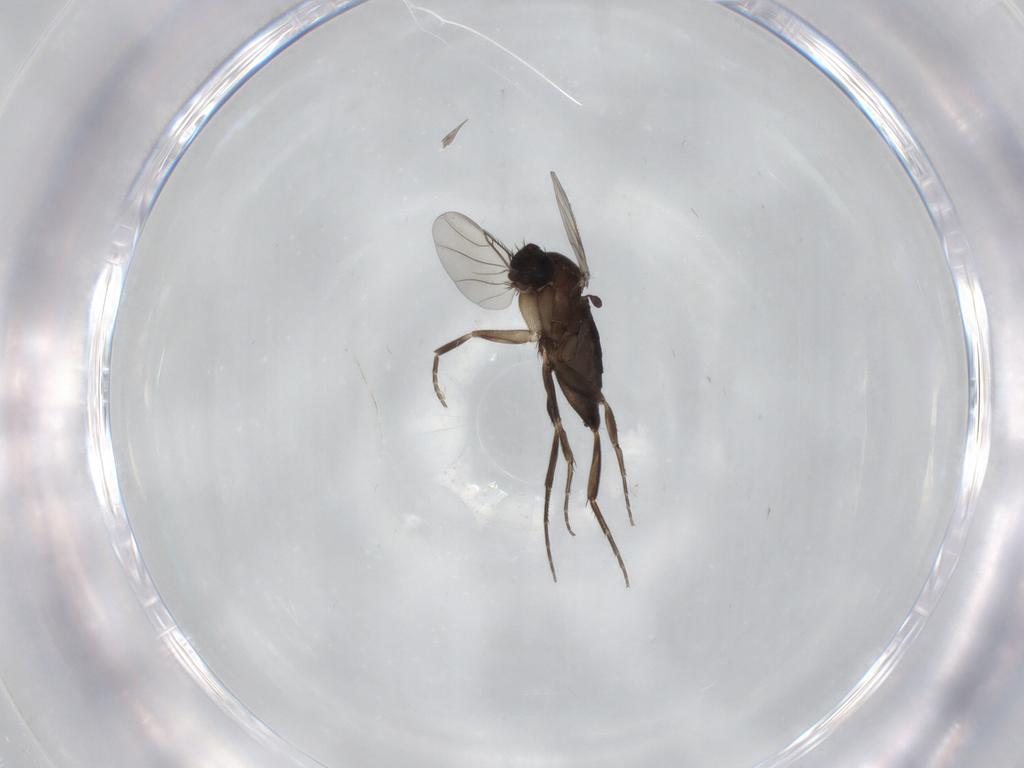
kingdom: Animalia
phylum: Arthropoda
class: Insecta
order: Diptera
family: Phoridae
